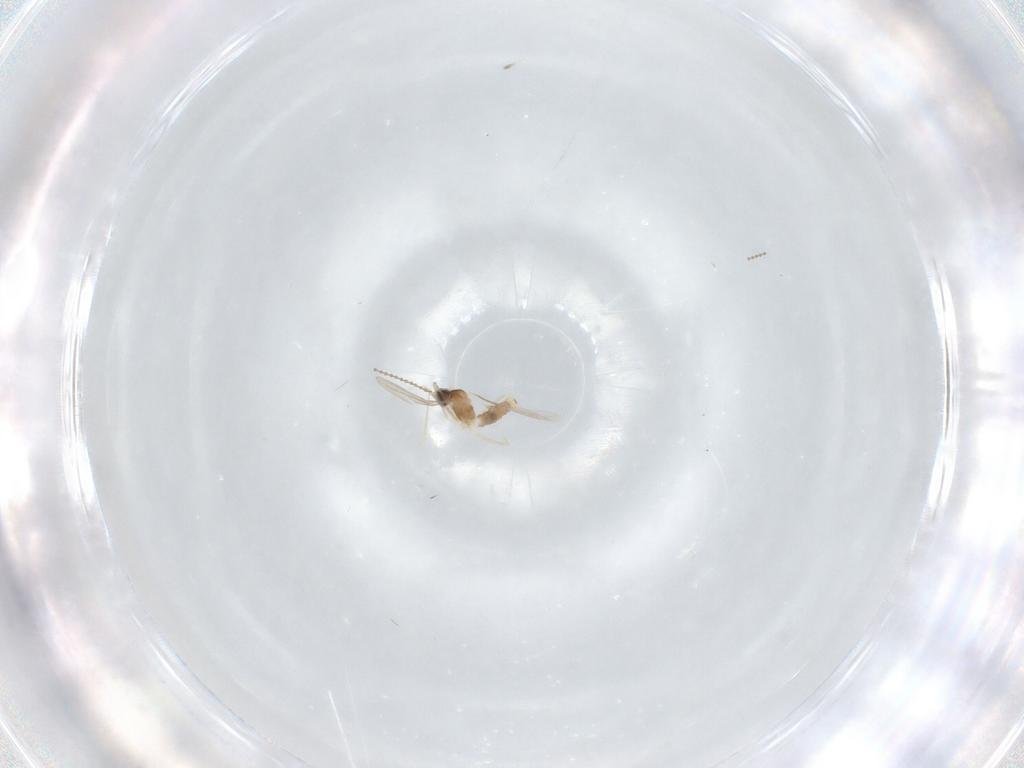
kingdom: Animalia
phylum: Arthropoda
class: Insecta
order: Diptera
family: Cecidomyiidae
